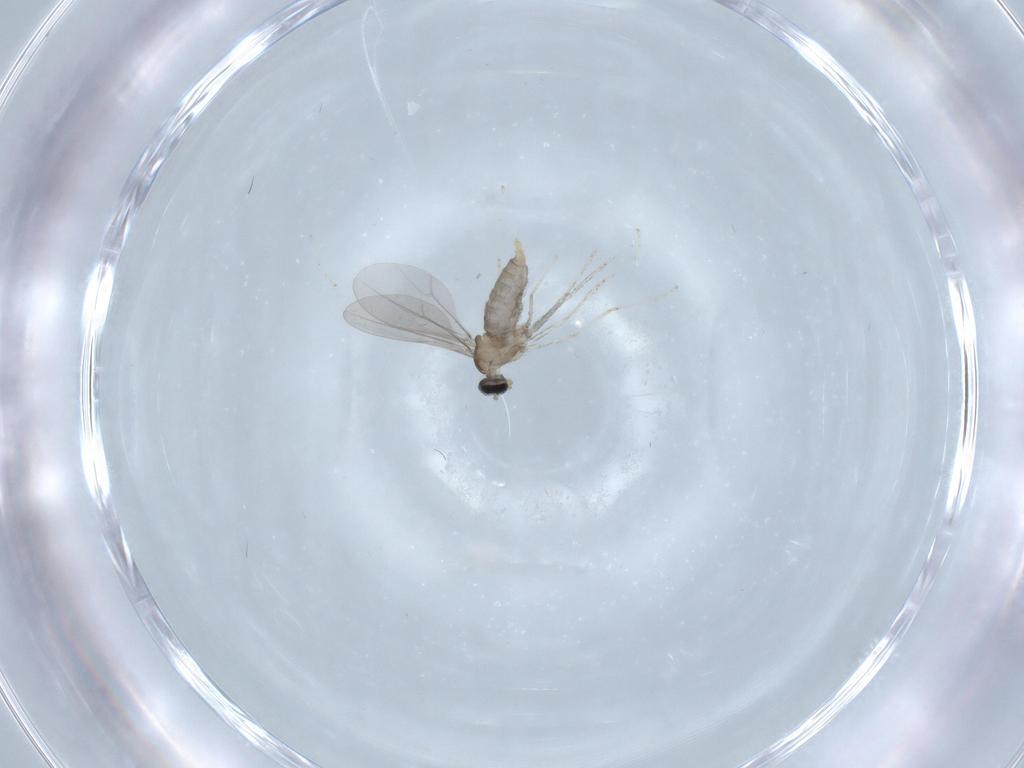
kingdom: Animalia
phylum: Arthropoda
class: Insecta
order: Diptera
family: Cecidomyiidae
